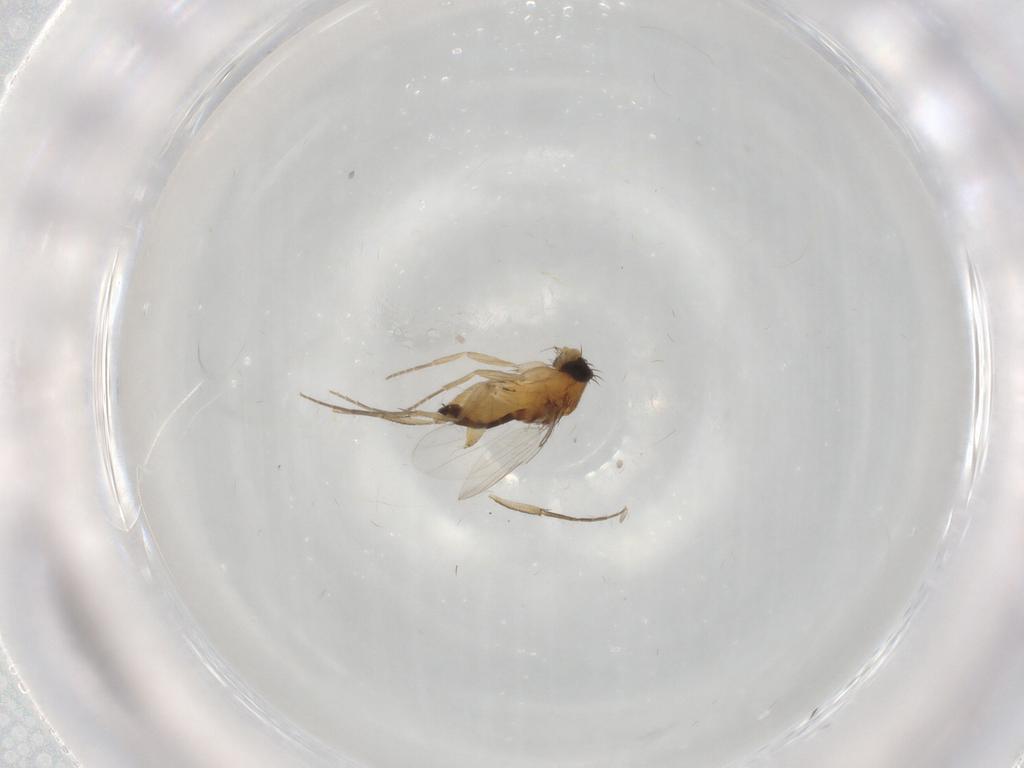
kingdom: Animalia
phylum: Arthropoda
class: Insecta
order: Diptera
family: Phoridae
